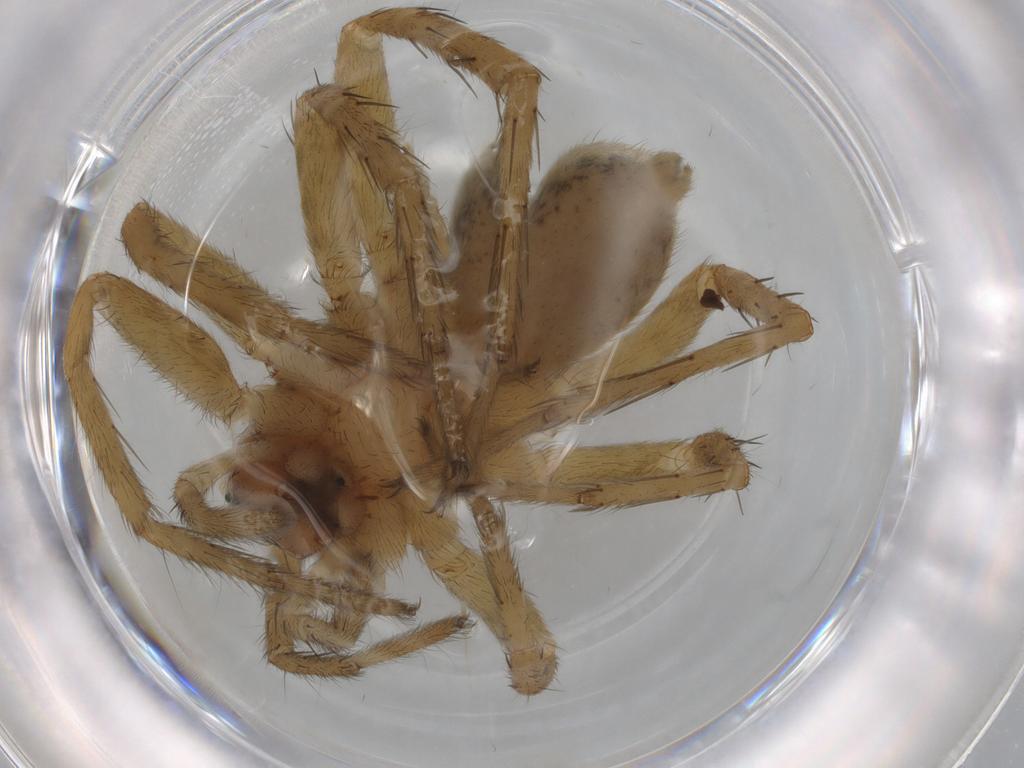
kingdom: Animalia
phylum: Arthropoda
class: Arachnida
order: Araneae
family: Lycosidae
